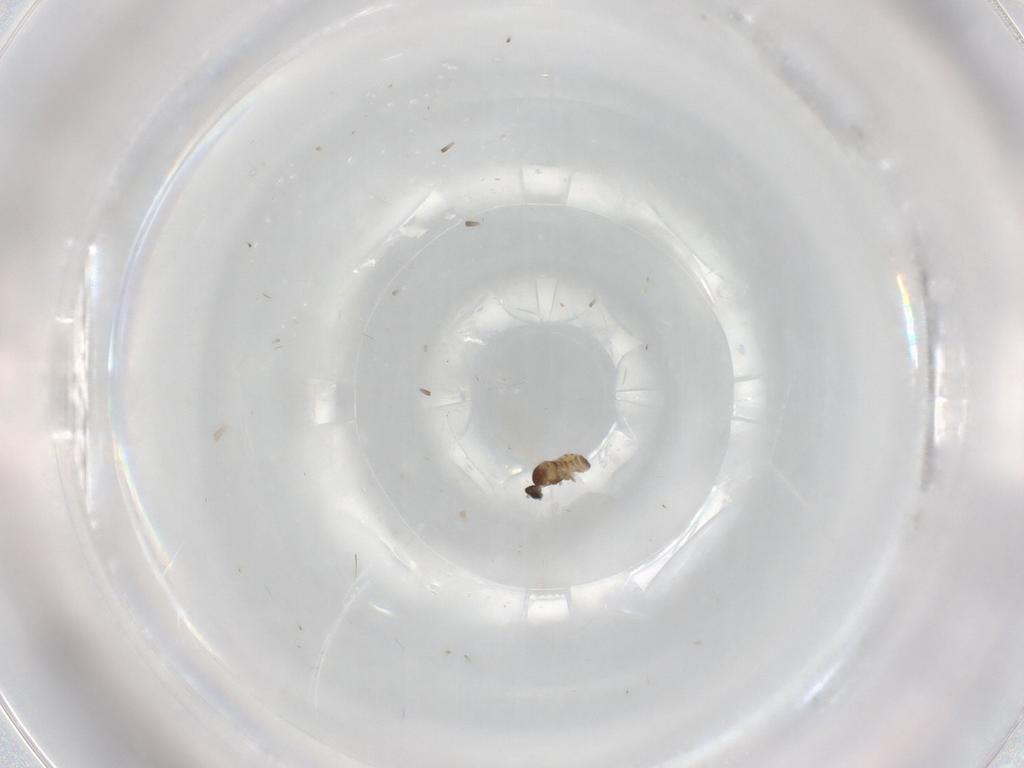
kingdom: Animalia
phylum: Arthropoda
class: Insecta
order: Diptera
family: Cecidomyiidae
